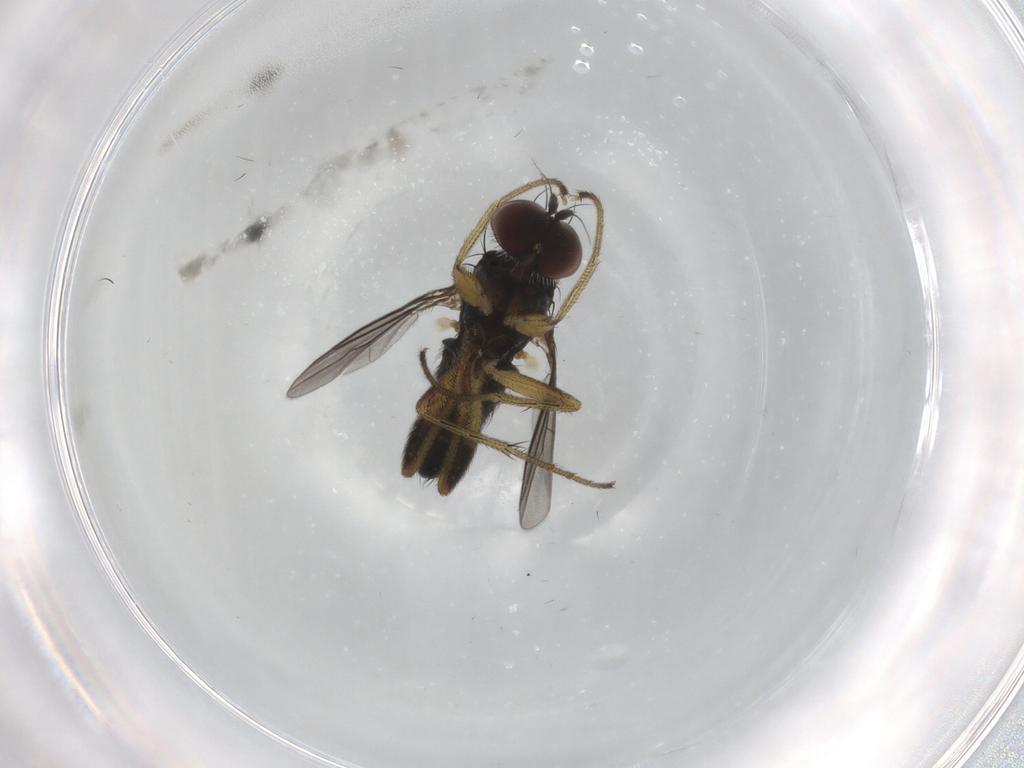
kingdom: Animalia
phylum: Arthropoda
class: Insecta
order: Diptera
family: Dolichopodidae
